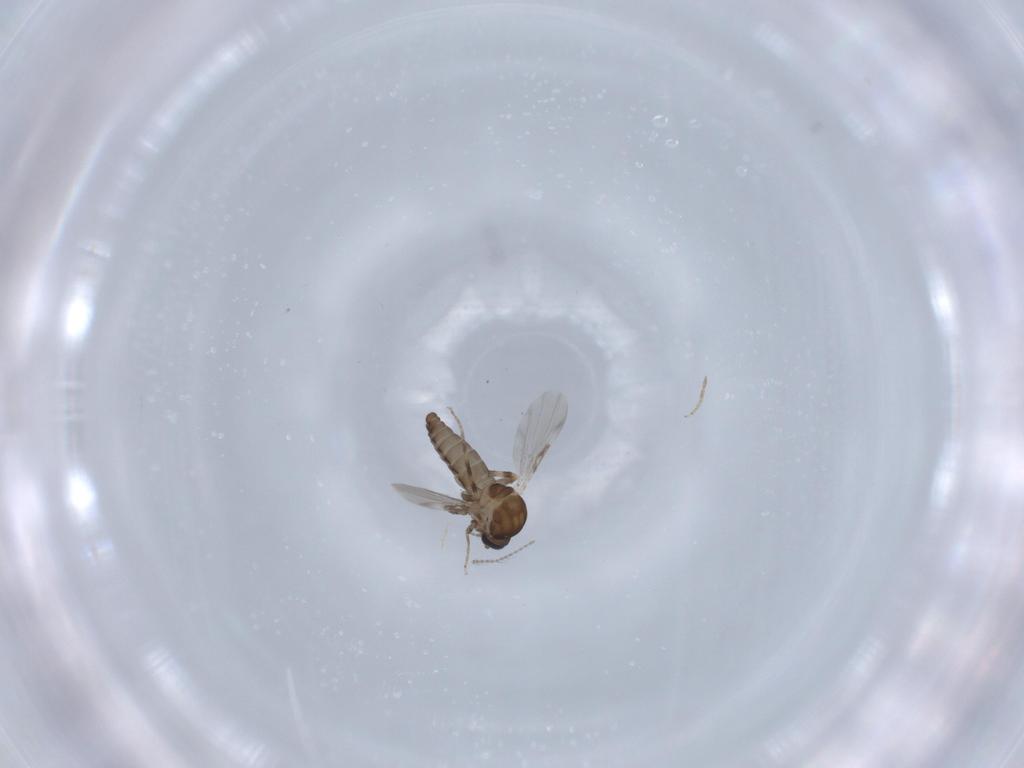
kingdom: Animalia
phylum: Arthropoda
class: Insecta
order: Diptera
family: Ceratopogonidae
